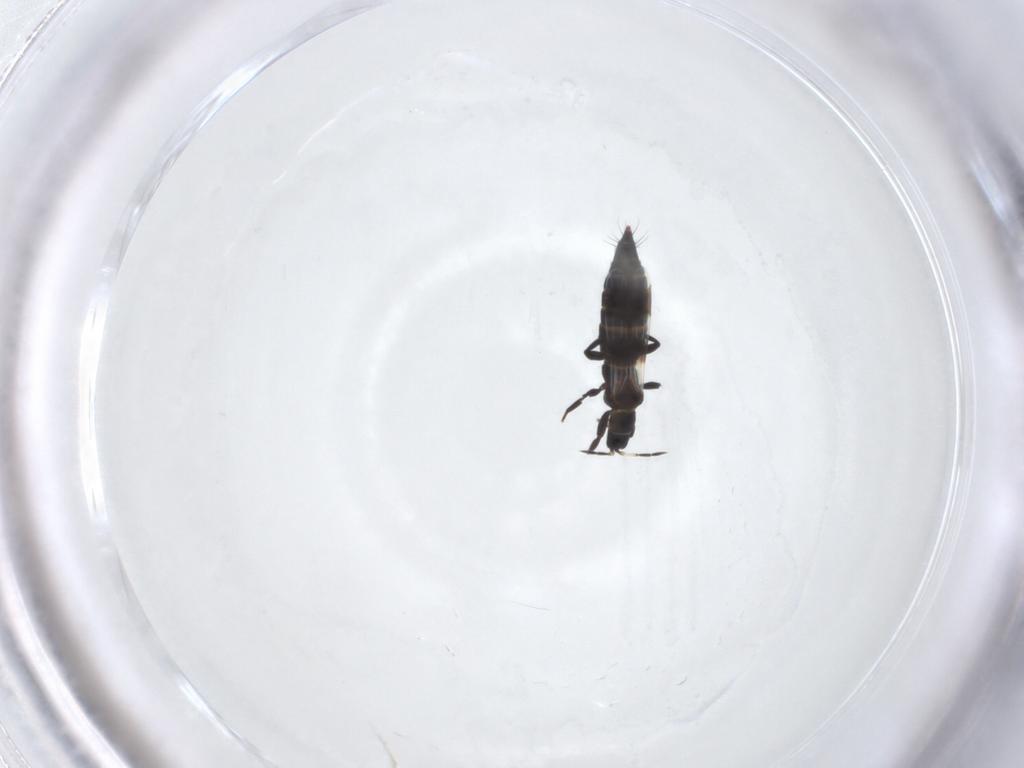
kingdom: Animalia
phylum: Arthropoda
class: Insecta
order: Thysanoptera
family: Aeolothripidae
